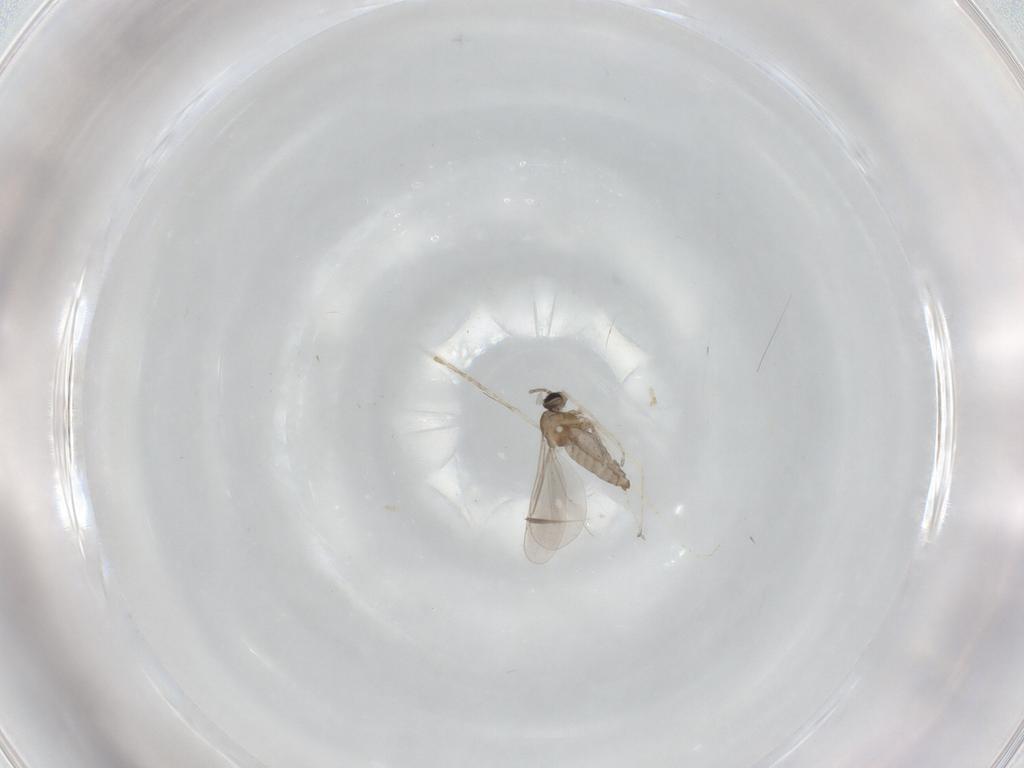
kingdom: Animalia
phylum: Arthropoda
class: Insecta
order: Diptera
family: Cecidomyiidae
